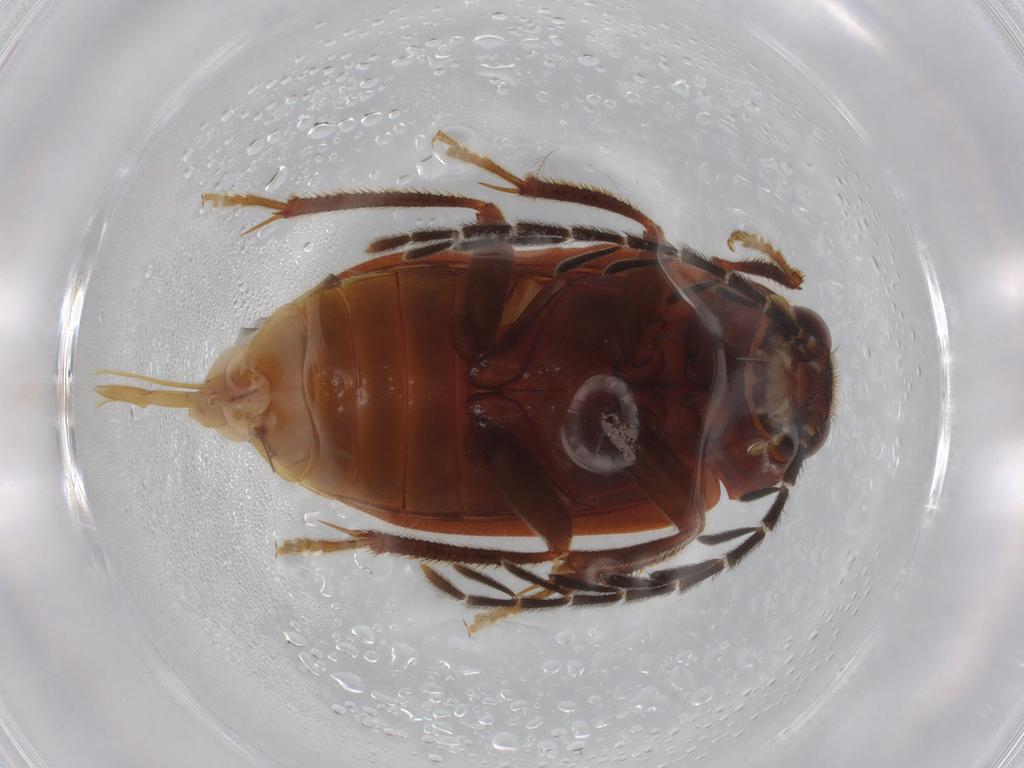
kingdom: Animalia
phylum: Arthropoda
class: Insecta
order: Coleoptera
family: Ptilodactylidae
